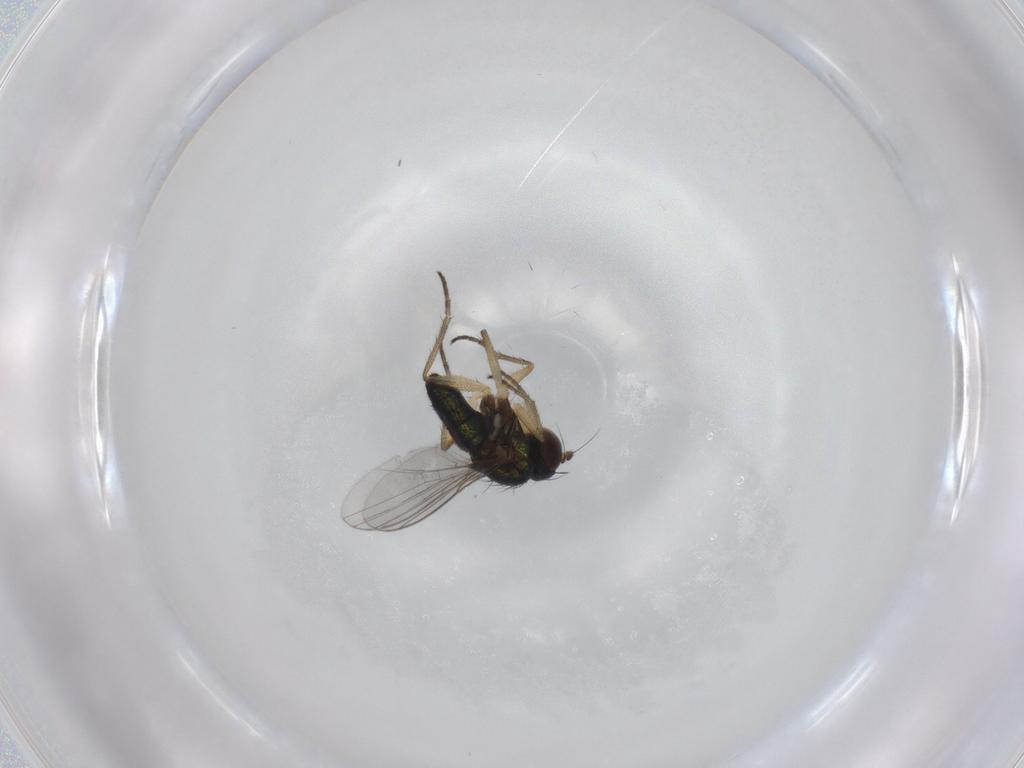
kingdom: Animalia
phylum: Arthropoda
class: Insecta
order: Diptera
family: Dolichopodidae
